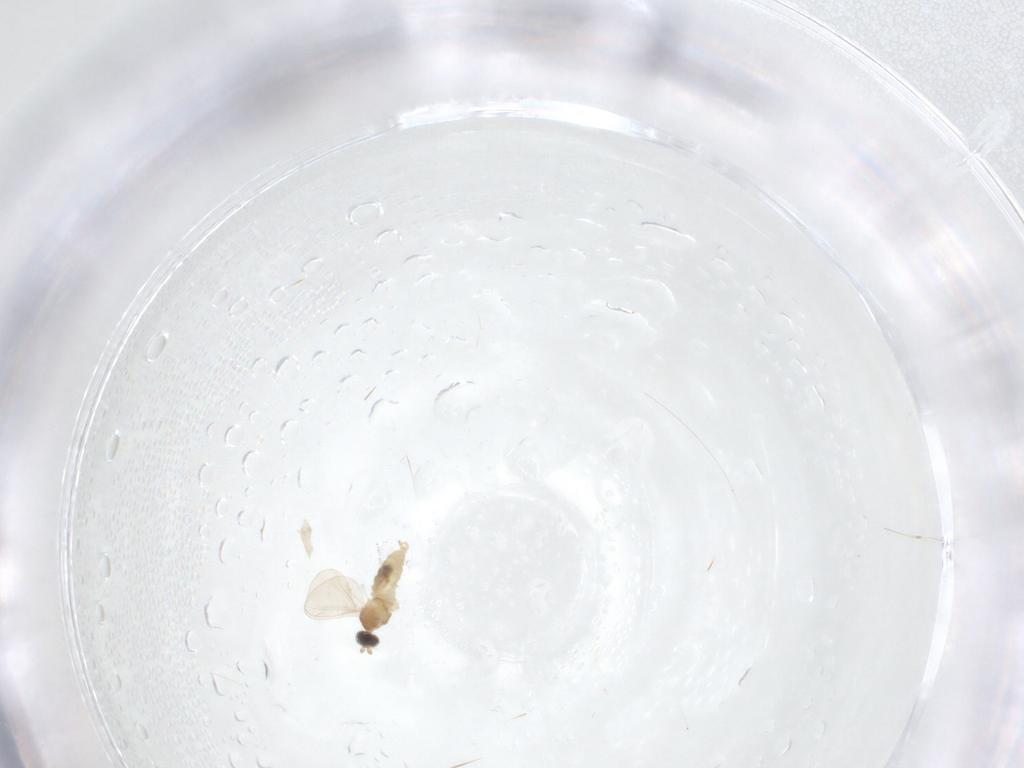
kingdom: Animalia
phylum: Arthropoda
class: Insecta
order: Diptera
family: Cecidomyiidae
